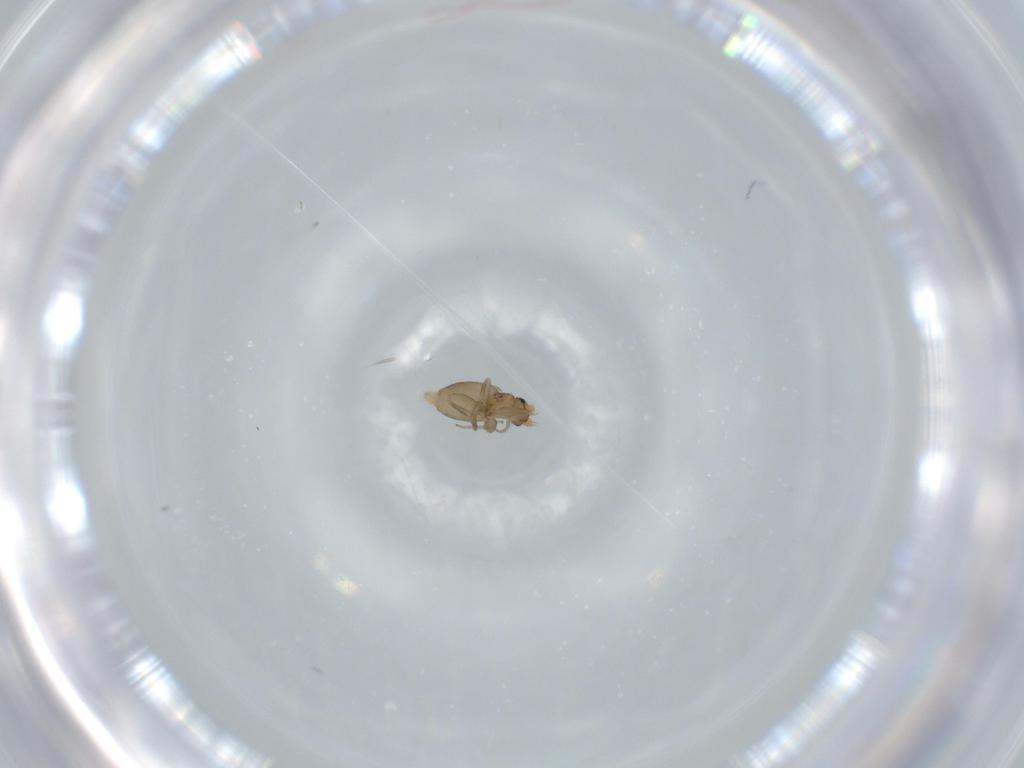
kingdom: Animalia
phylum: Arthropoda
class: Insecta
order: Diptera
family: Phoridae
